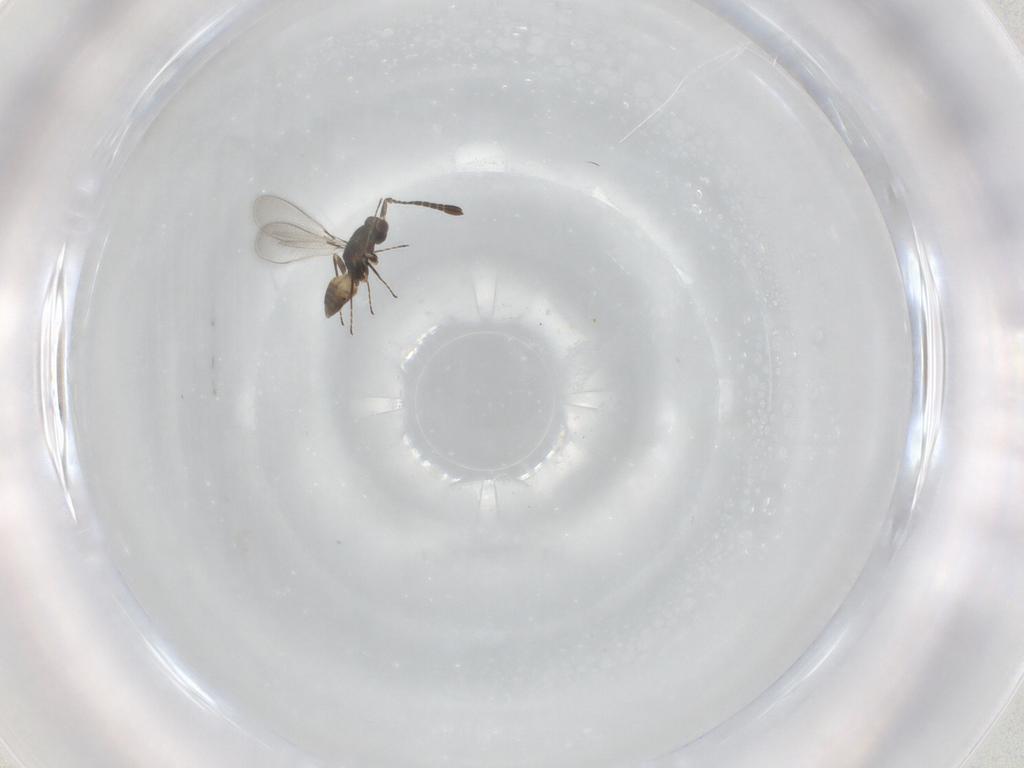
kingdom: Animalia
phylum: Arthropoda
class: Insecta
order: Hymenoptera
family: Mymaridae
